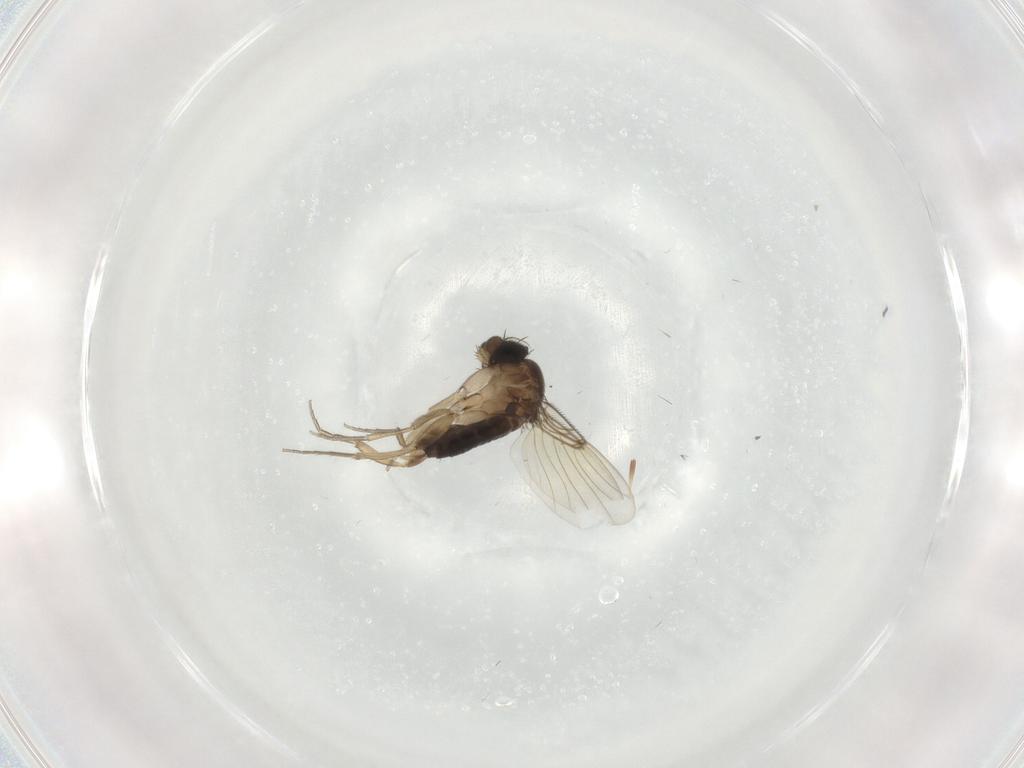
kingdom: Animalia
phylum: Arthropoda
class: Insecta
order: Diptera
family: Phoridae
